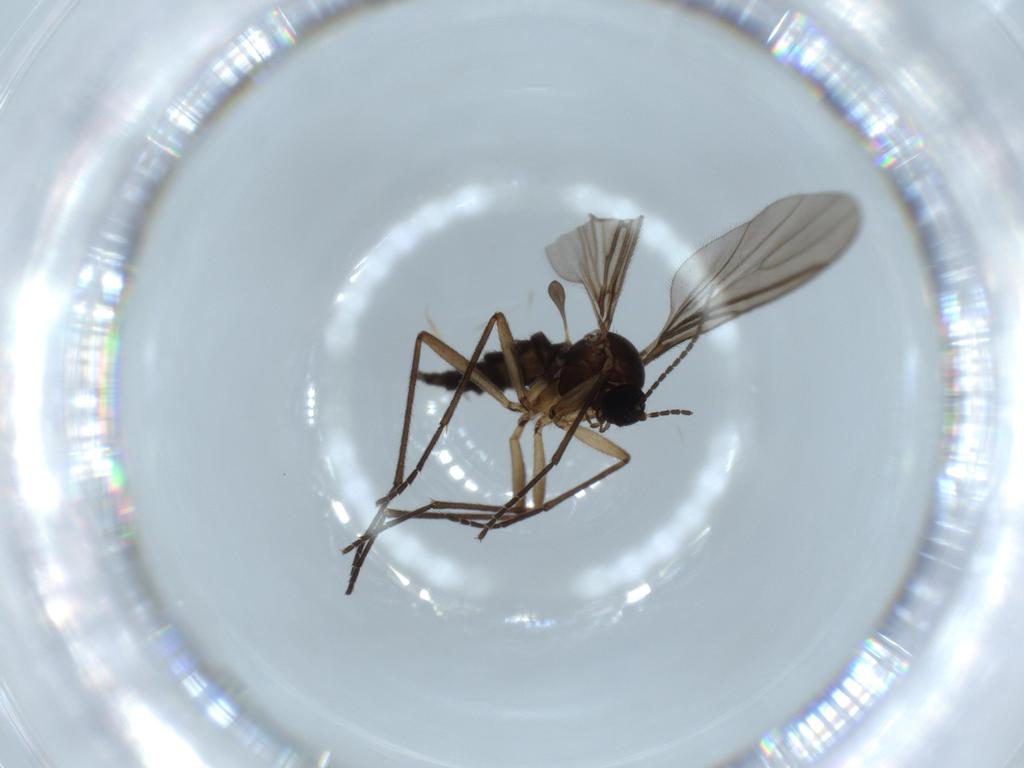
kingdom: Animalia
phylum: Arthropoda
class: Insecta
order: Diptera
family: Sciaridae
